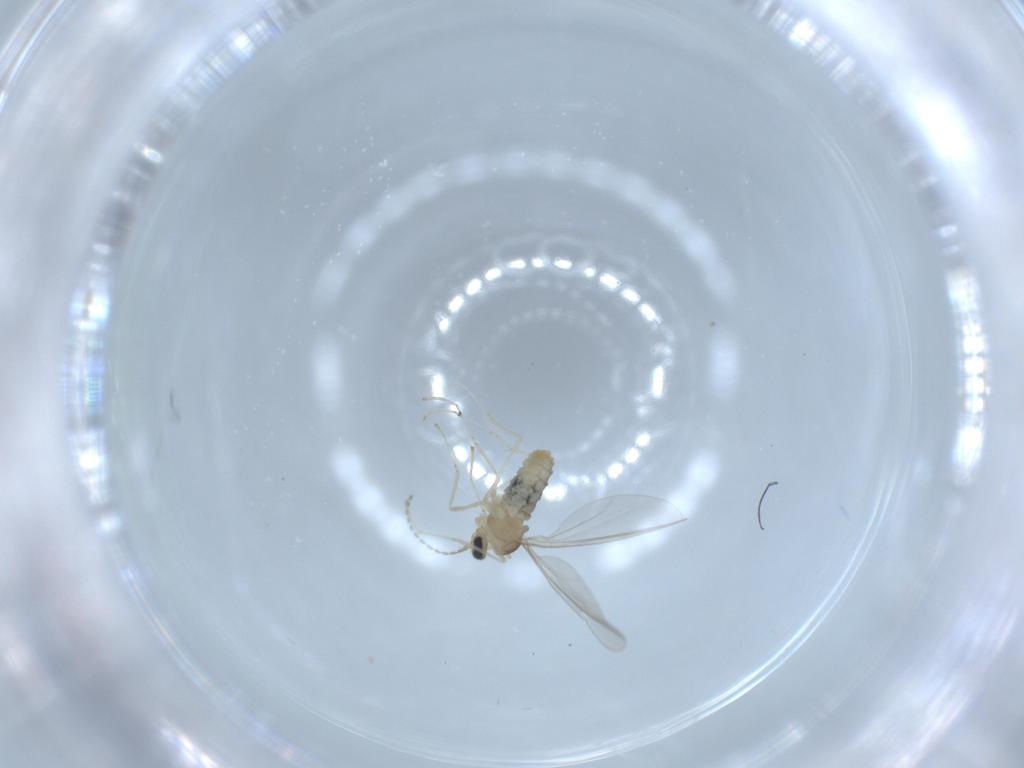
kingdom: Animalia
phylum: Arthropoda
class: Insecta
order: Diptera
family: Cecidomyiidae
